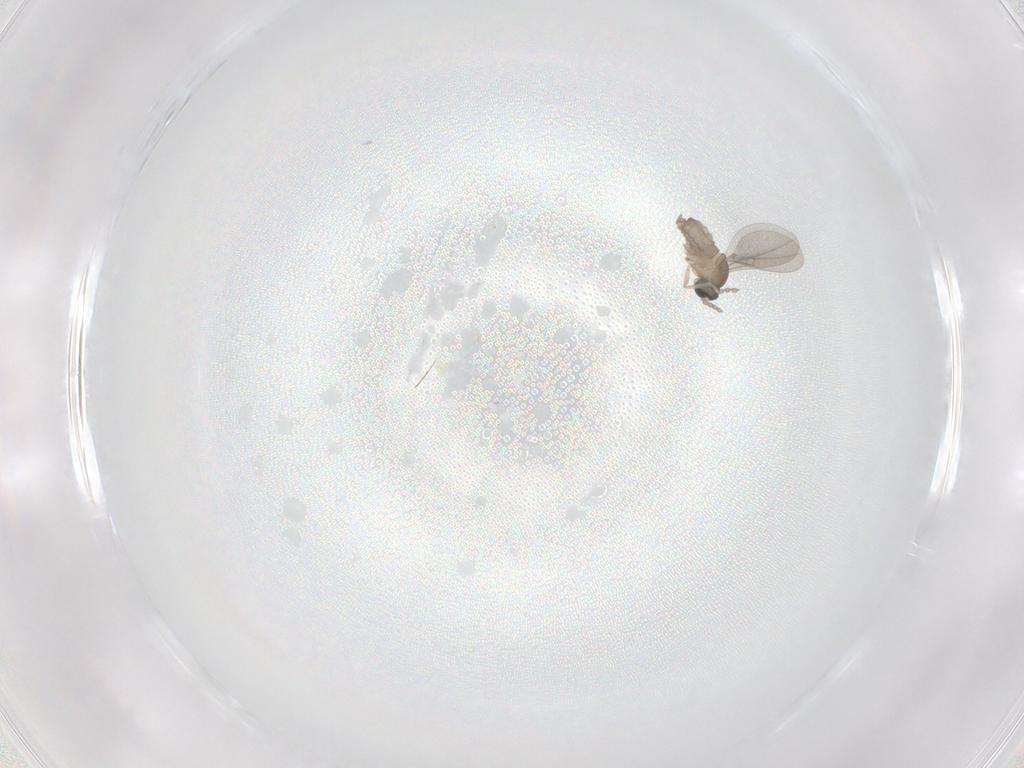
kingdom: Animalia
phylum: Arthropoda
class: Insecta
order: Diptera
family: Cecidomyiidae
